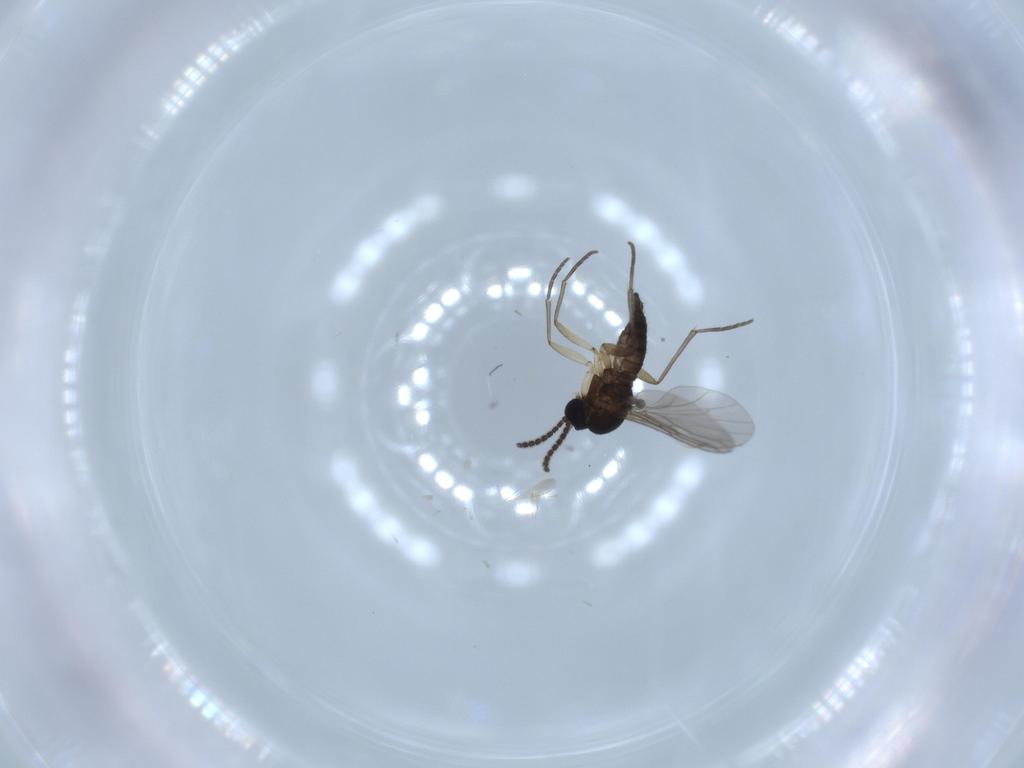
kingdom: Animalia
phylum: Arthropoda
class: Insecta
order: Diptera
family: Sciaridae
